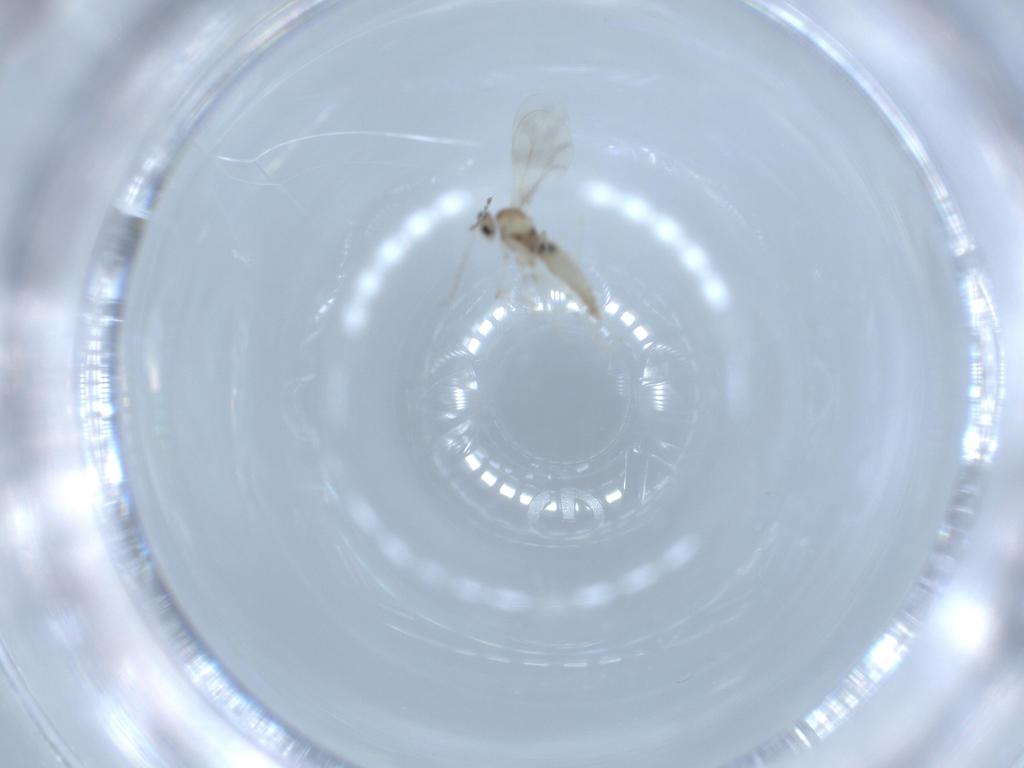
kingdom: Animalia
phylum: Arthropoda
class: Insecta
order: Diptera
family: Cecidomyiidae
